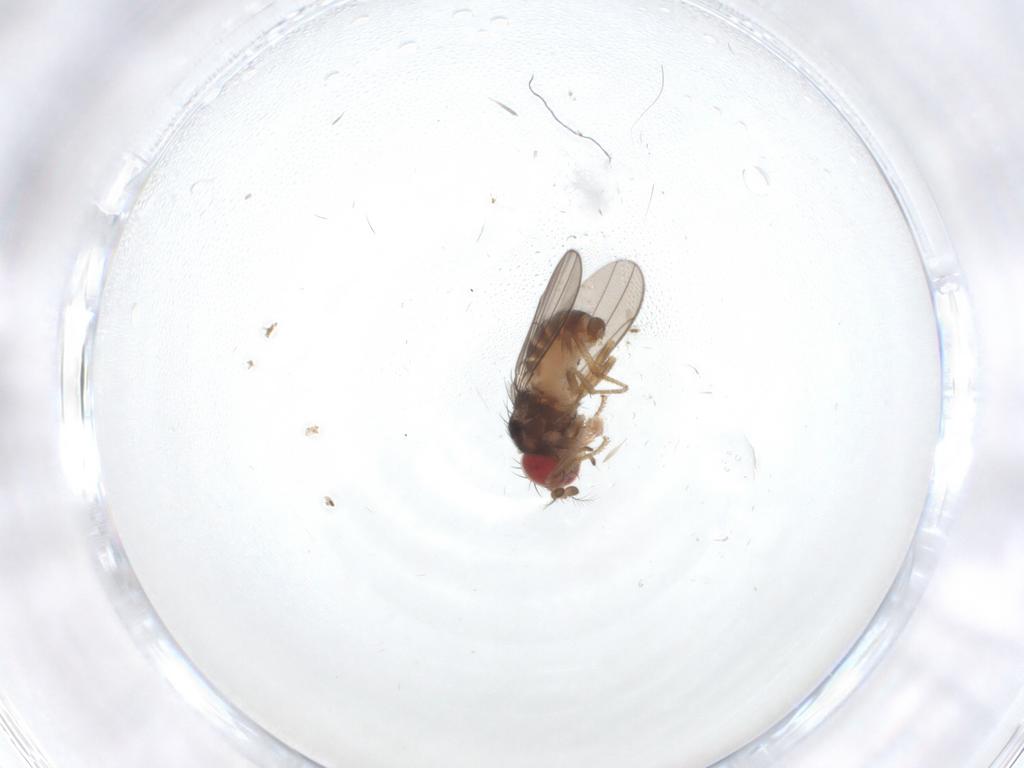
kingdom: Animalia
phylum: Arthropoda
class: Insecta
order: Diptera
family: Drosophilidae
